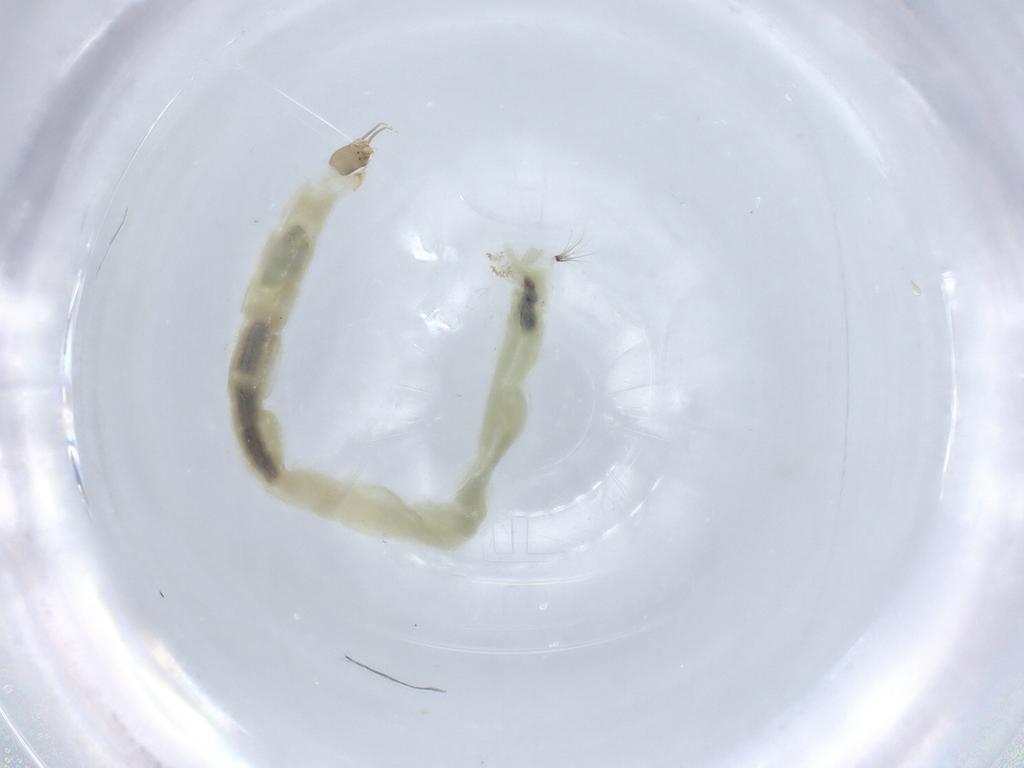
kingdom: Animalia
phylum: Arthropoda
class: Insecta
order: Diptera
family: Chironomidae
